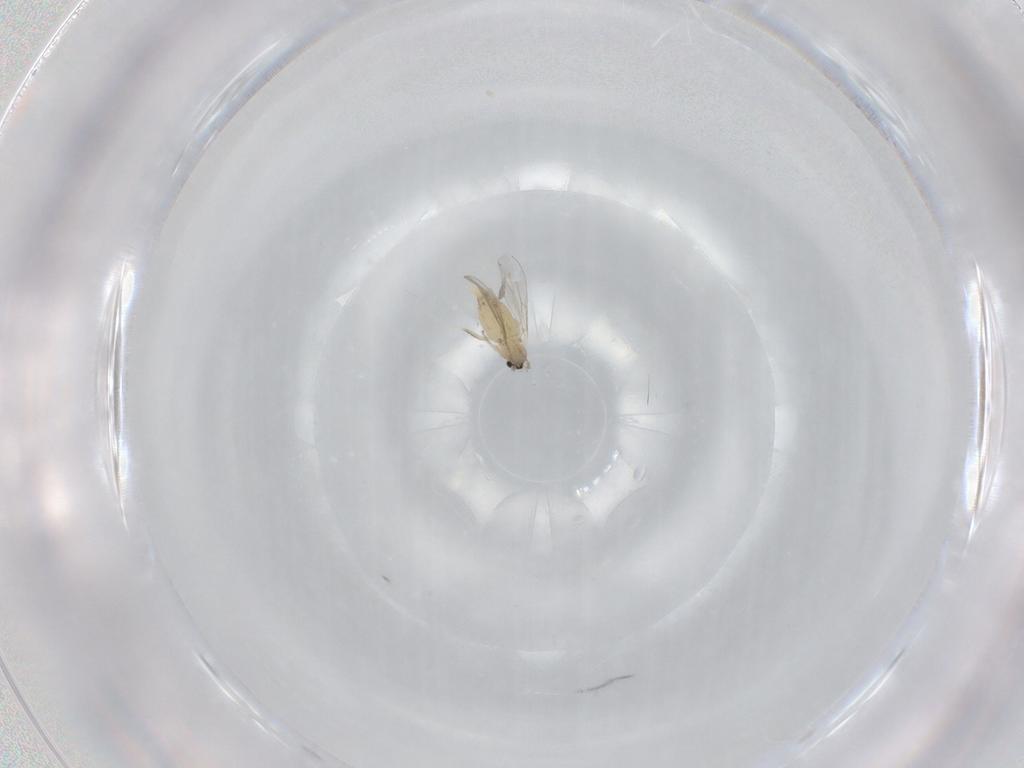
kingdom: Animalia
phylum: Arthropoda
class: Insecta
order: Diptera
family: Cecidomyiidae
